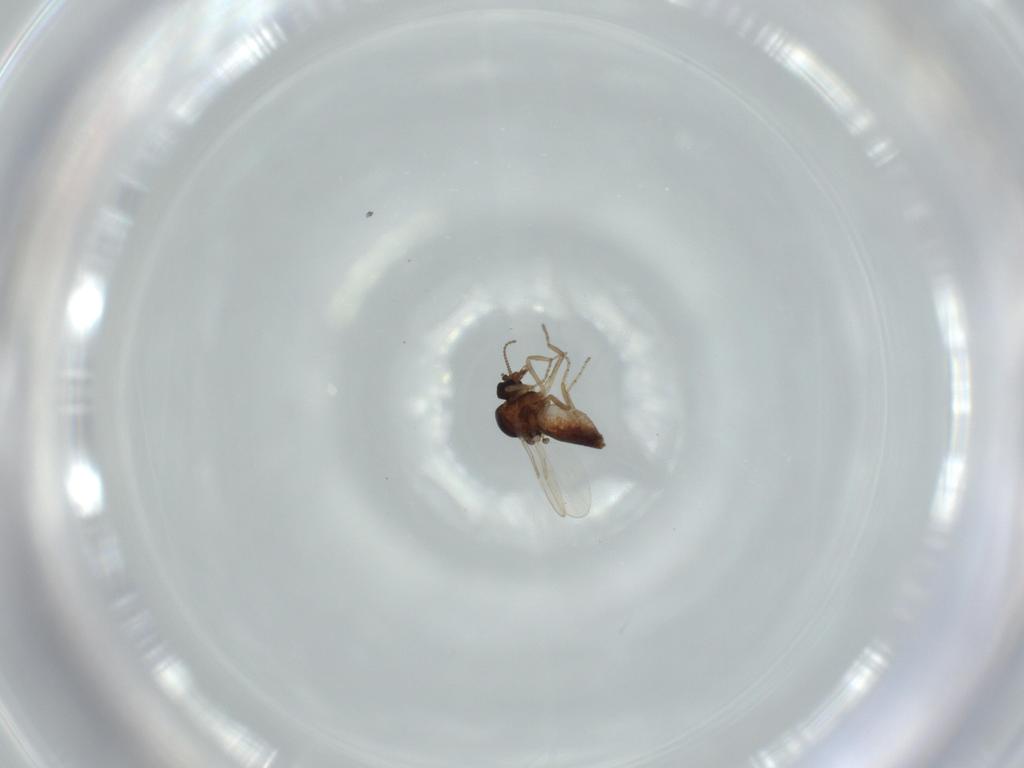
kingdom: Animalia
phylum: Arthropoda
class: Insecta
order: Diptera
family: Ceratopogonidae
